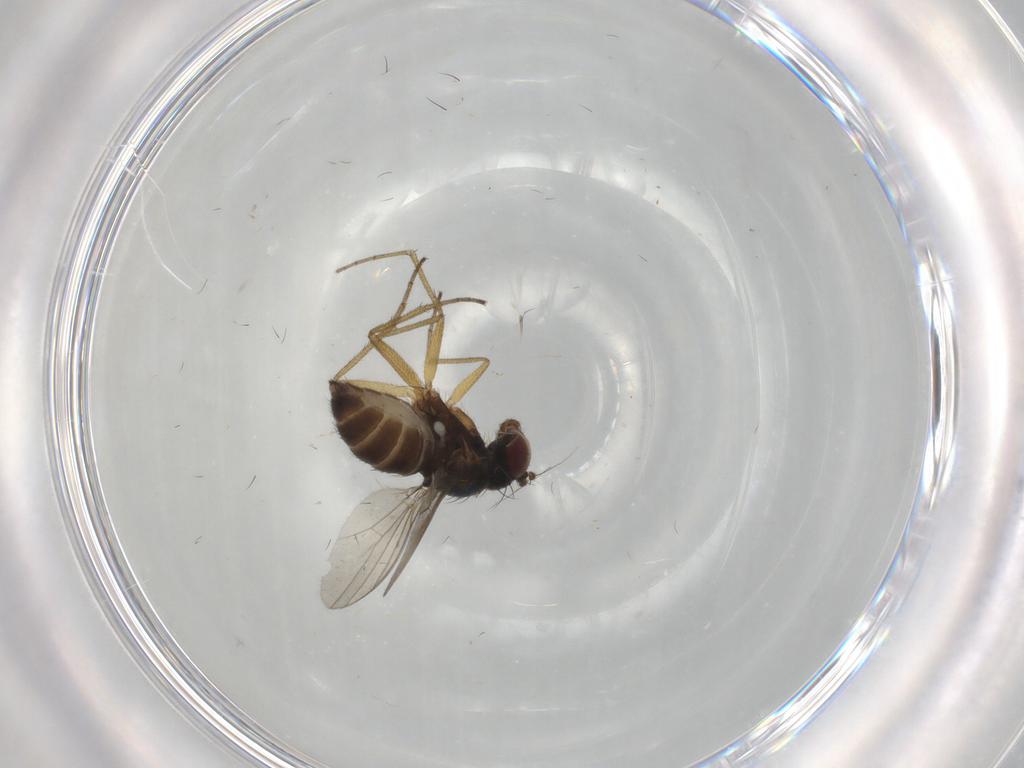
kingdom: Animalia
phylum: Arthropoda
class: Insecta
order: Diptera
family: Dolichopodidae
